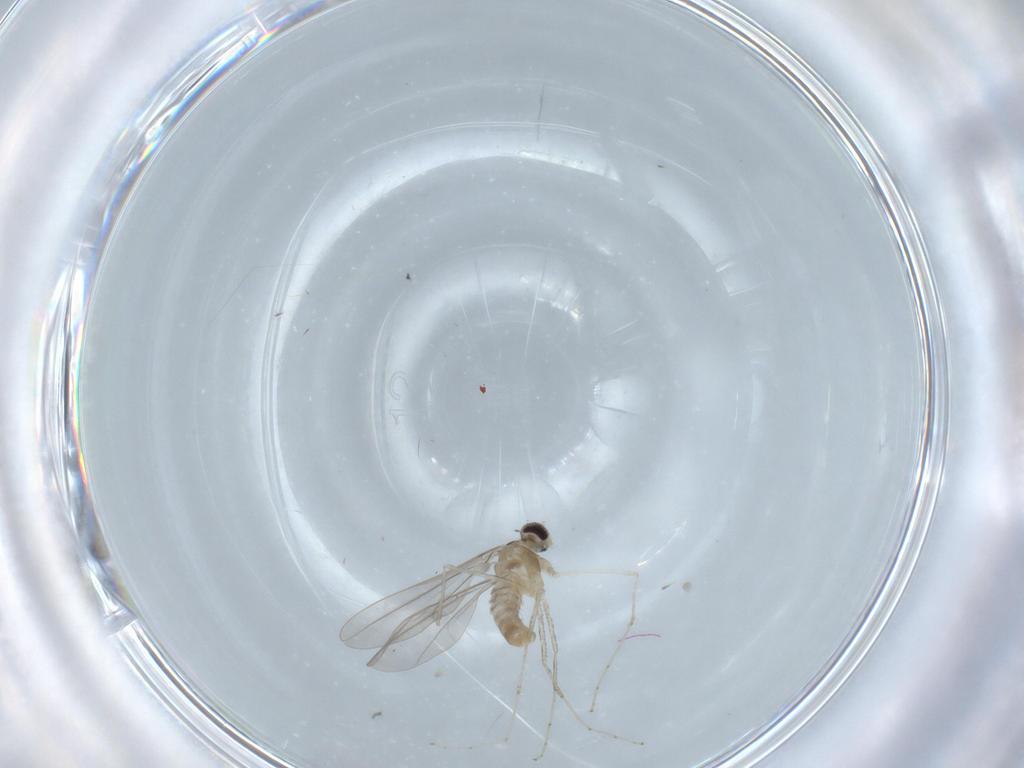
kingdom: Animalia
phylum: Arthropoda
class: Insecta
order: Diptera
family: Cecidomyiidae
